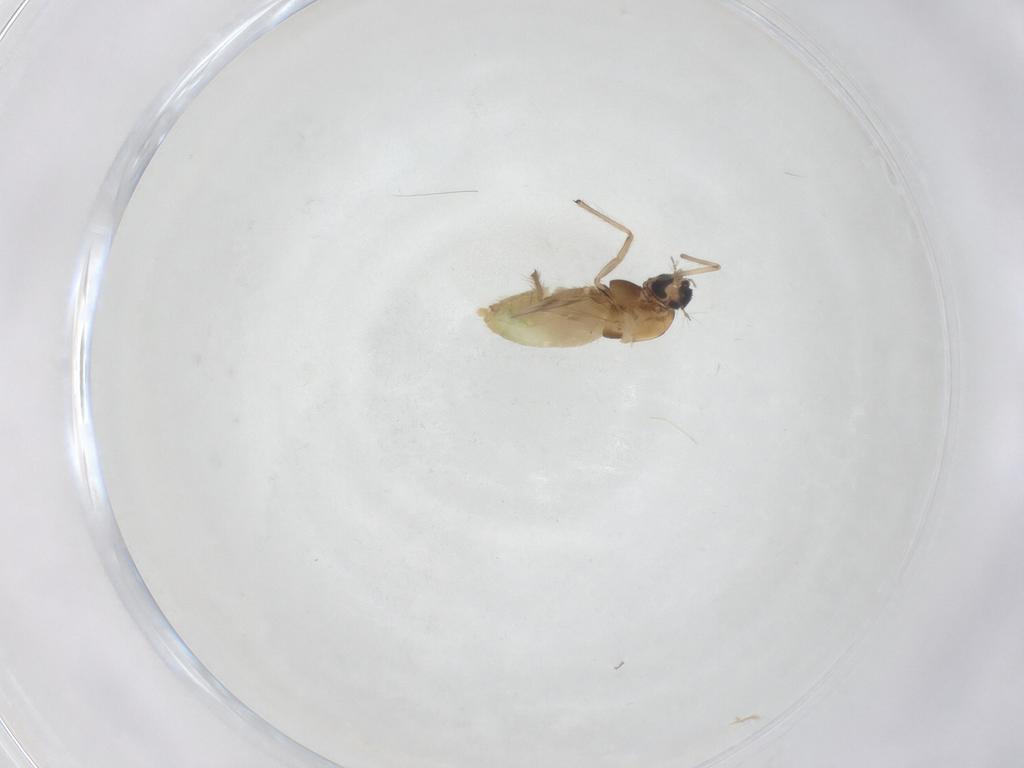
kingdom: Animalia
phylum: Arthropoda
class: Insecta
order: Diptera
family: Chironomidae
